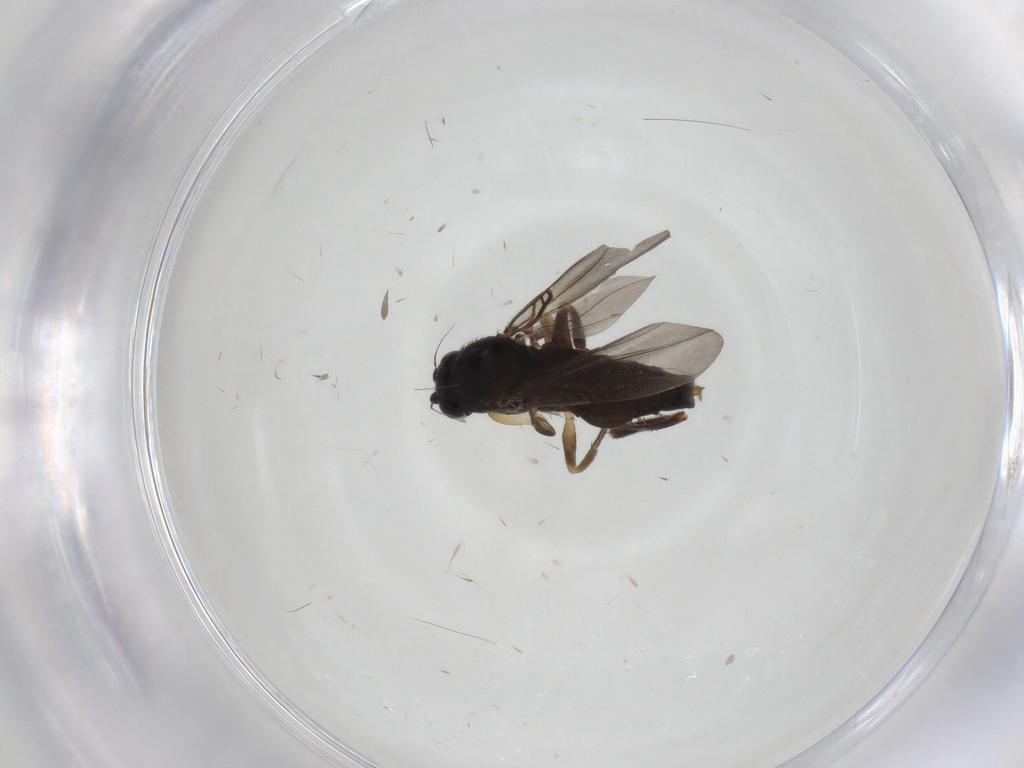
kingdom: Animalia
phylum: Arthropoda
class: Insecta
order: Diptera
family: Phoridae
